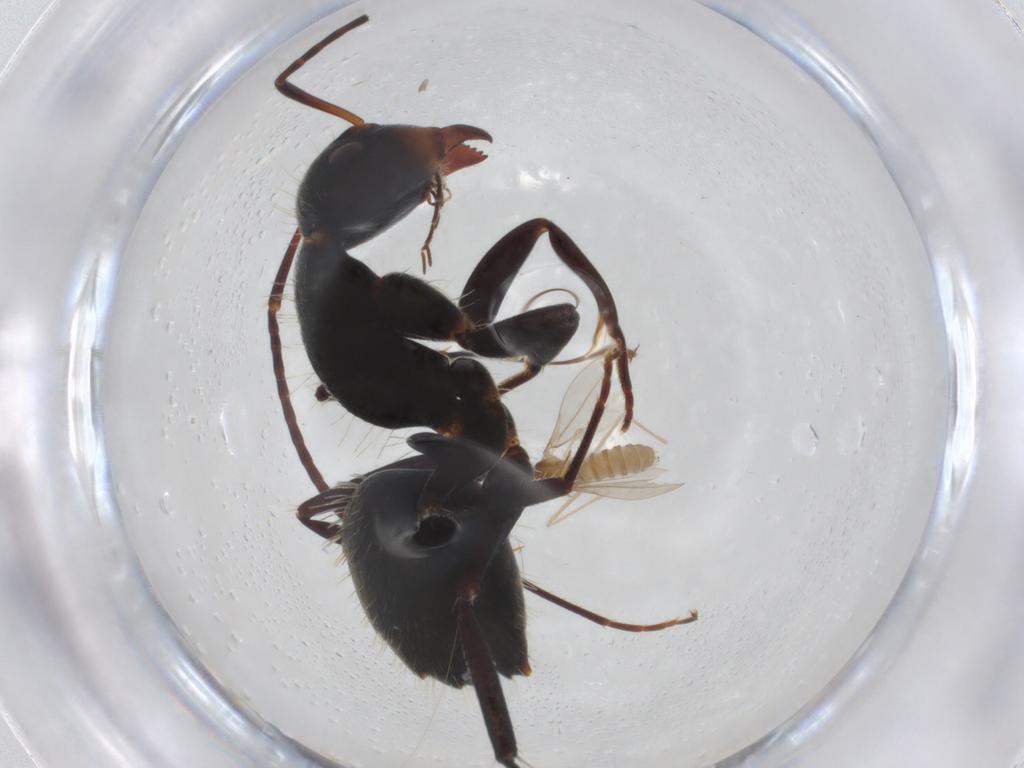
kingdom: Animalia
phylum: Arthropoda
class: Insecta
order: Diptera
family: Cecidomyiidae
